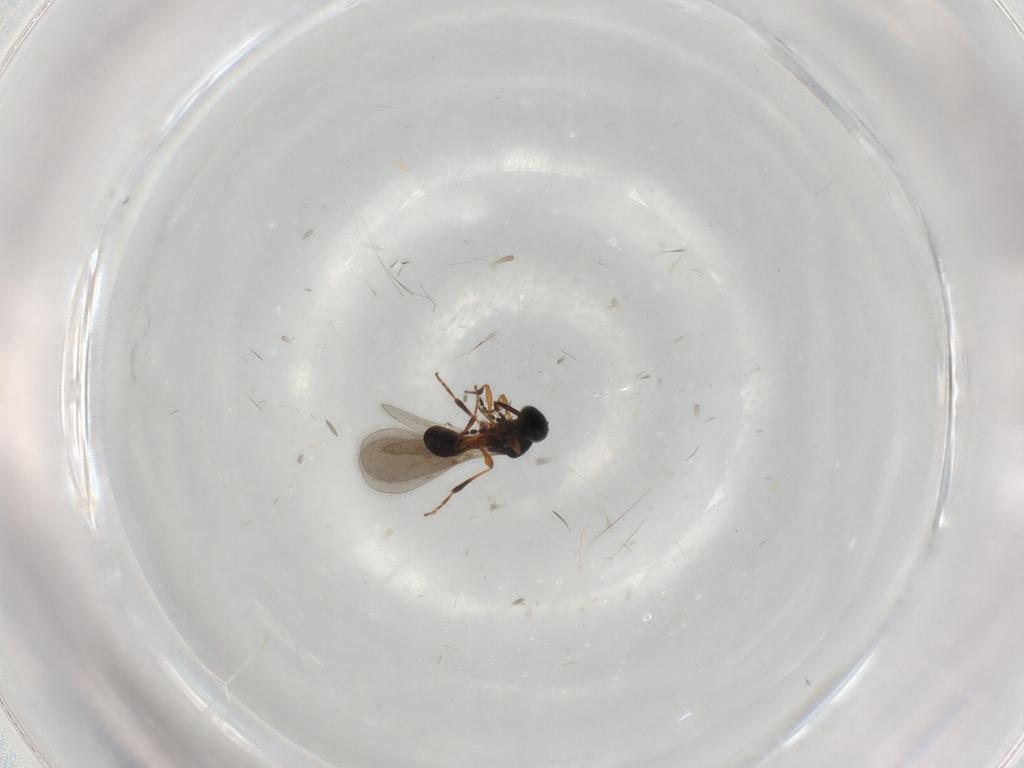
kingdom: Animalia
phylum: Arthropoda
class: Insecta
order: Hymenoptera
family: Platygastridae
